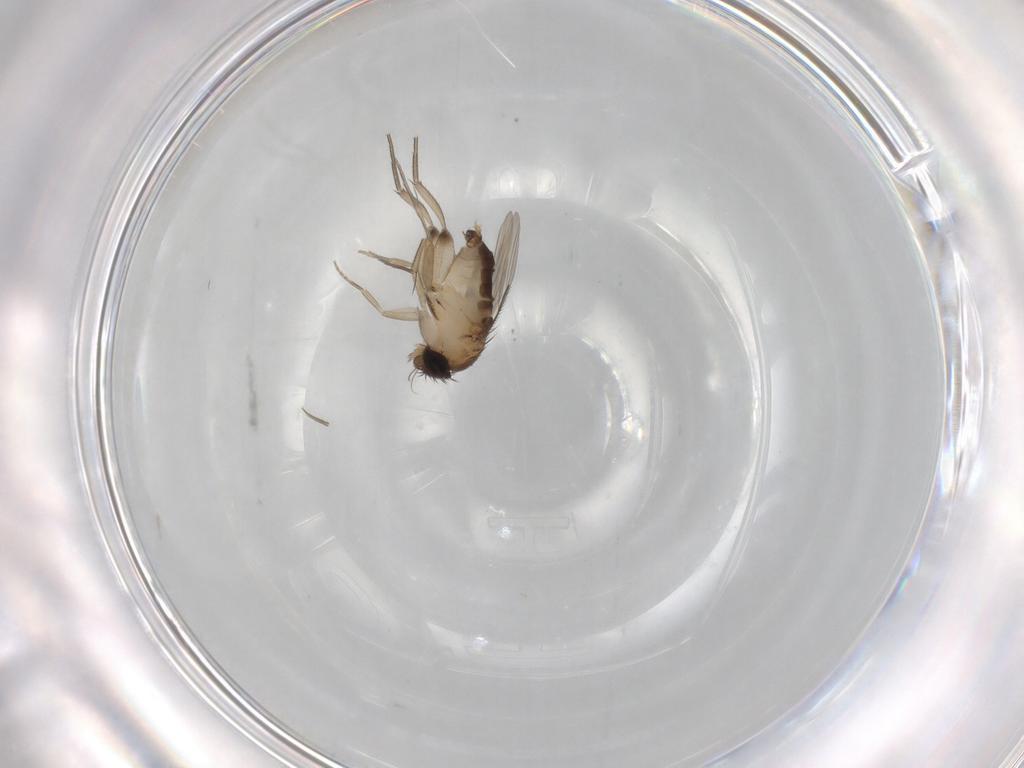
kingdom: Animalia
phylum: Arthropoda
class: Insecta
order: Diptera
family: Phoridae
